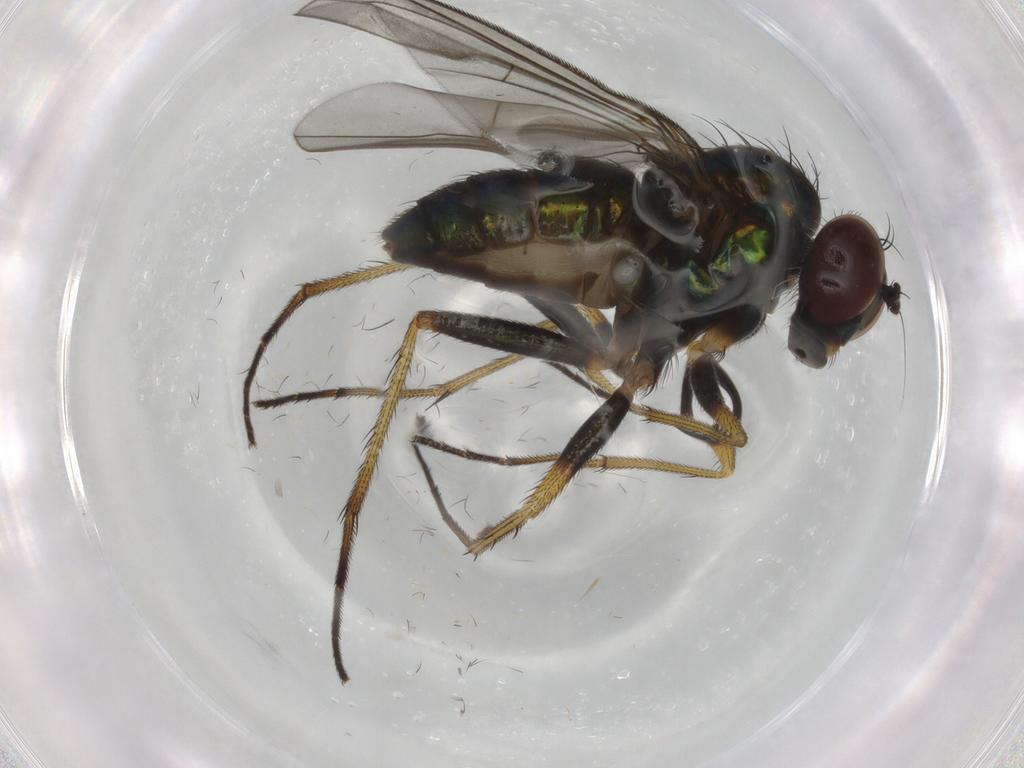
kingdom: Animalia
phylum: Arthropoda
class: Insecta
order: Diptera
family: Dolichopodidae
